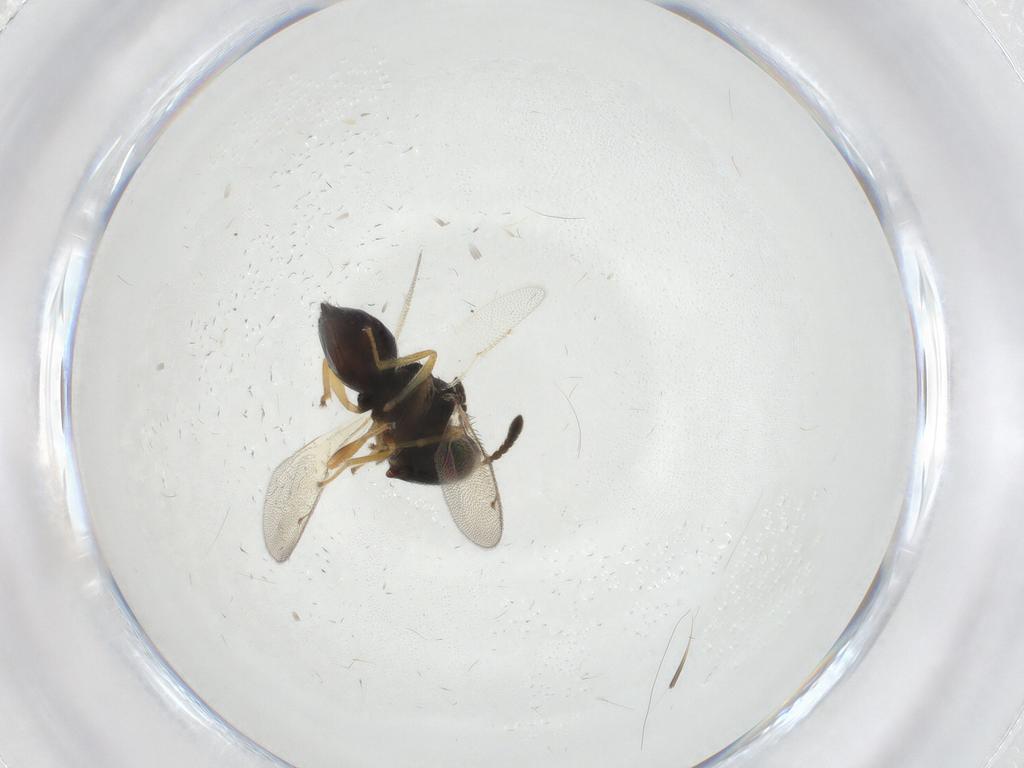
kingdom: Animalia
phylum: Arthropoda
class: Insecta
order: Hymenoptera
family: Pteromalidae
